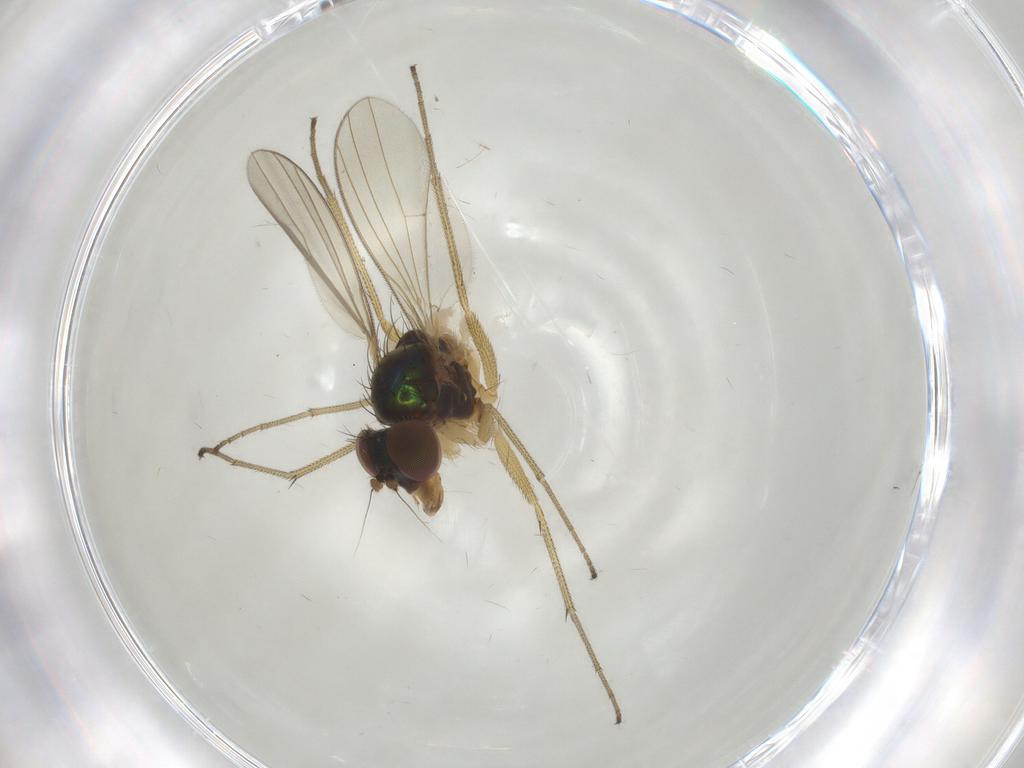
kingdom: Animalia
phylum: Arthropoda
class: Insecta
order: Diptera
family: Dolichopodidae
